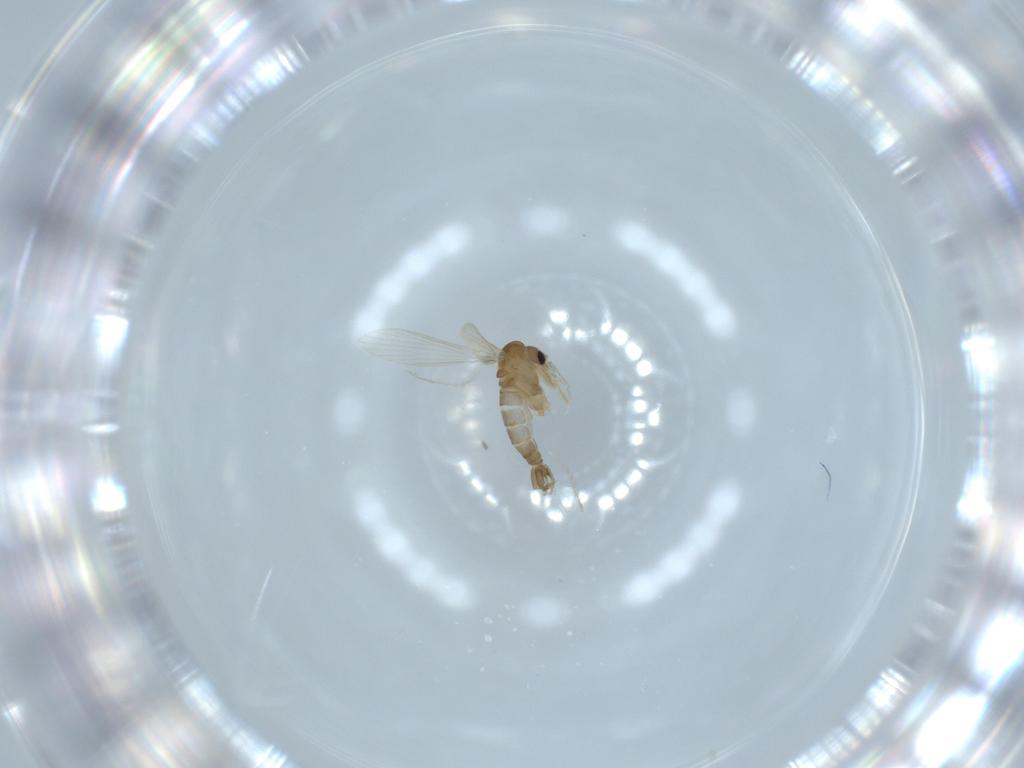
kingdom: Animalia
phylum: Arthropoda
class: Insecta
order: Diptera
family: Psychodidae
